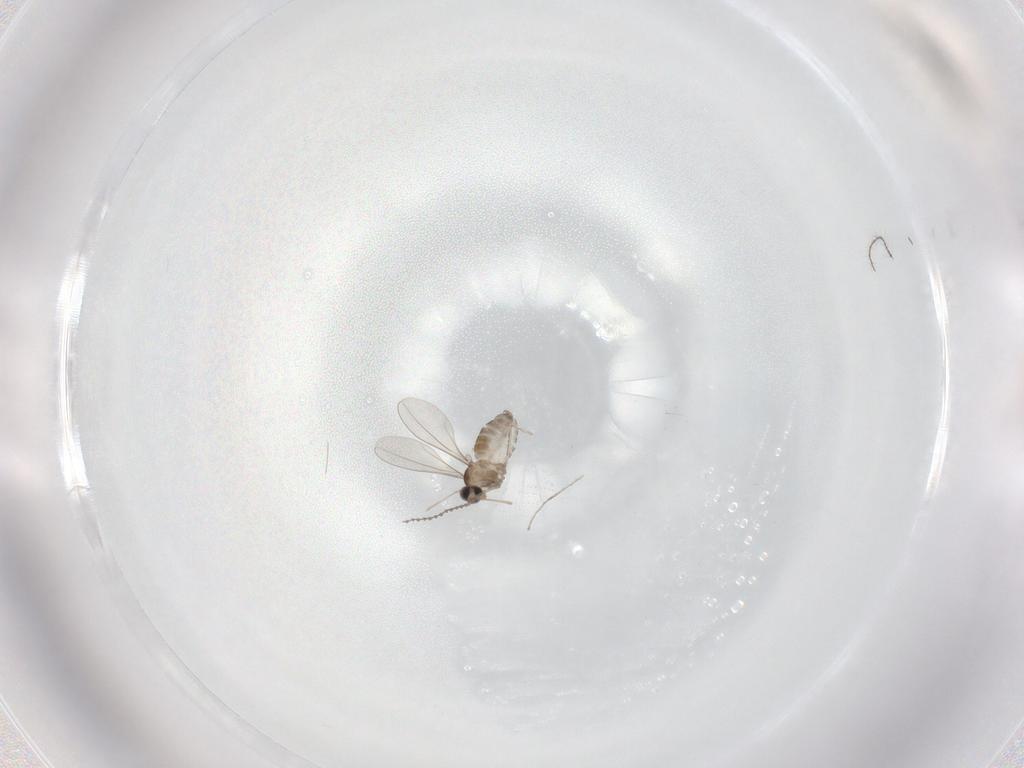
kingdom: Animalia
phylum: Arthropoda
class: Insecta
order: Diptera
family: Cecidomyiidae
